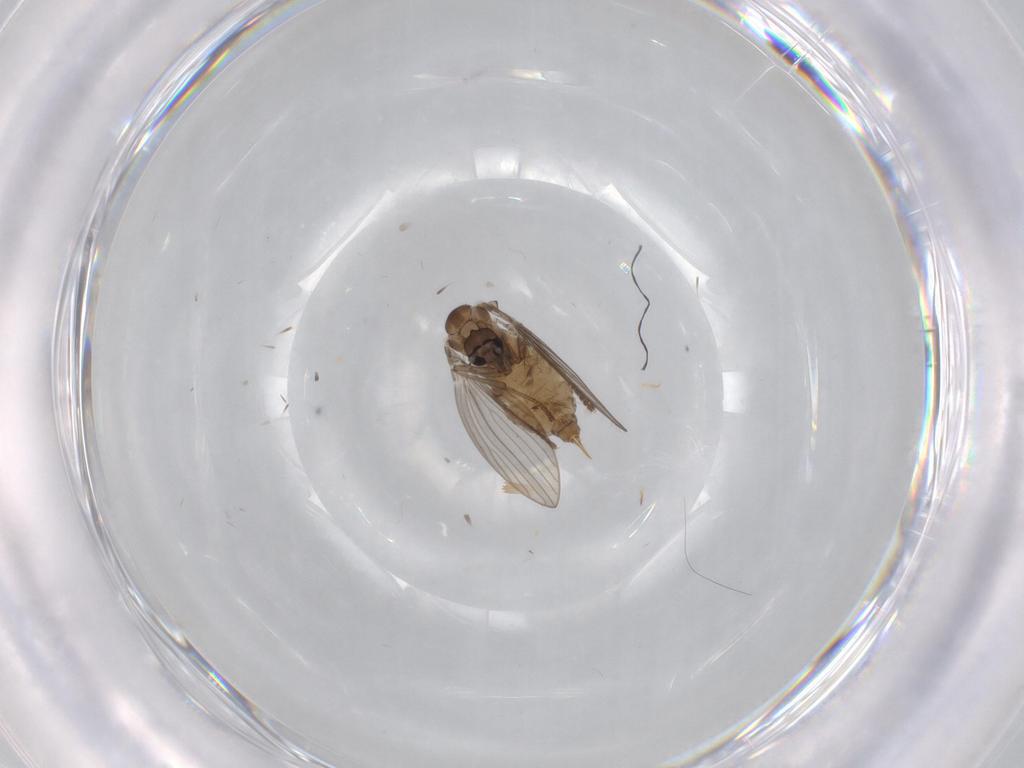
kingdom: Animalia
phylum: Arthropoda
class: Insecta
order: Diptera
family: Psychodidae
